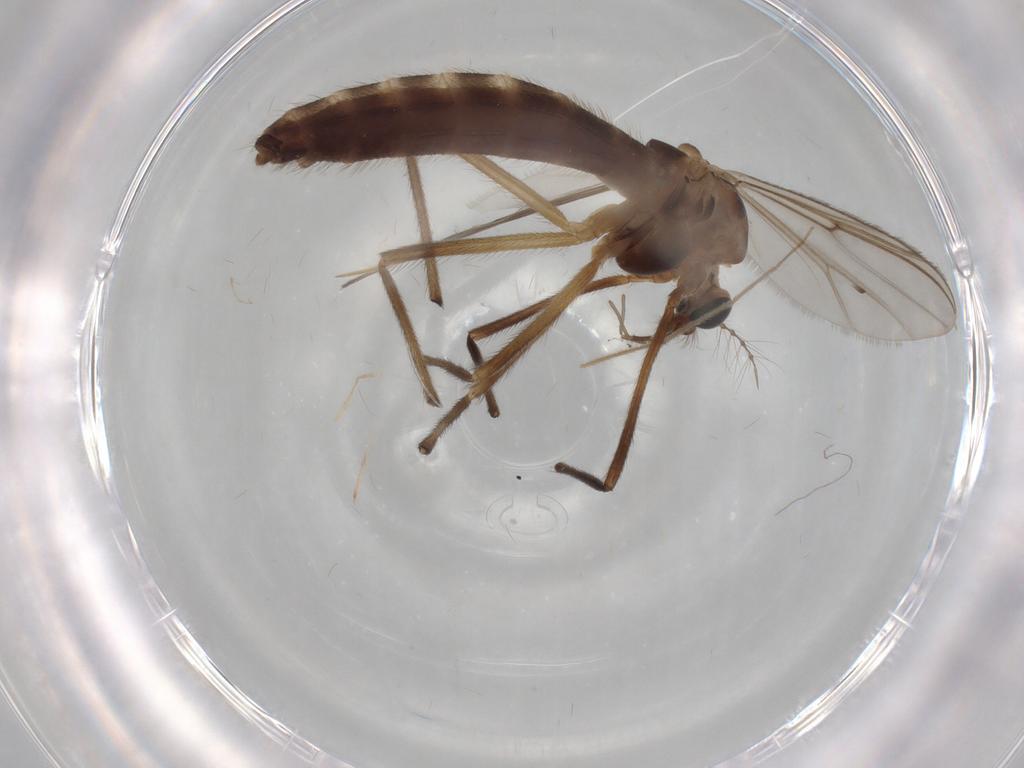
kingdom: Animalia
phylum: Arthropoda
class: Insecta
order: Diptera
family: Chironomidae
